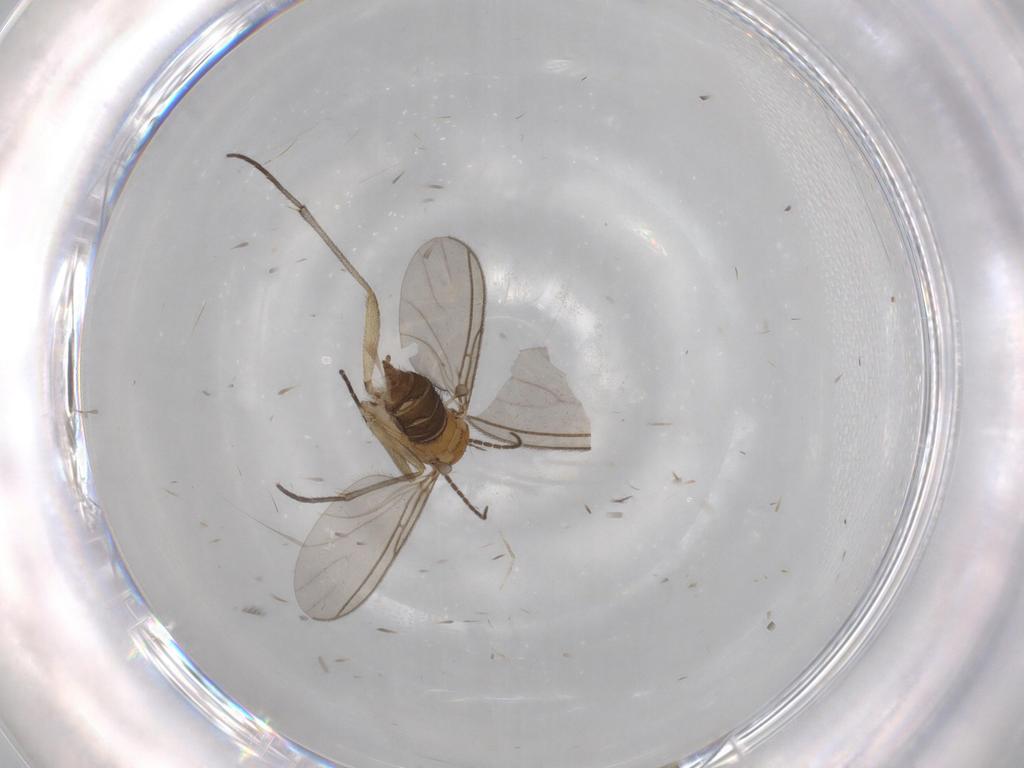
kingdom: Animalia
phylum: Arthropoda
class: Insecta
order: Diptera
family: Sciaridae
